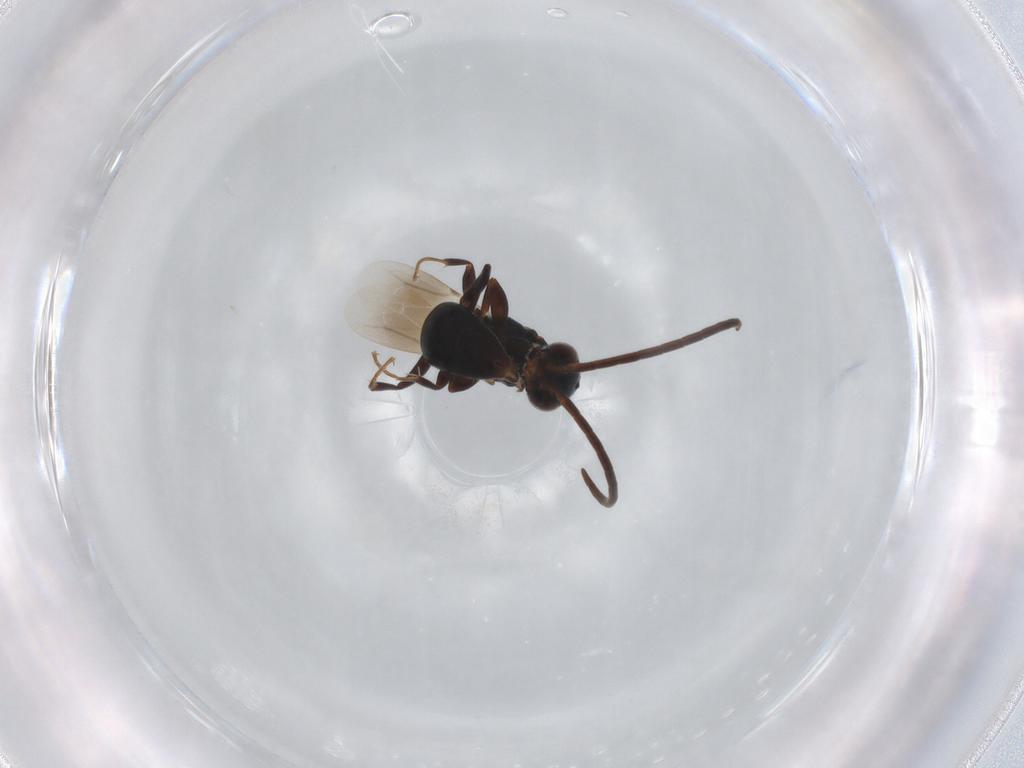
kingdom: Animalia
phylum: Arthropoda
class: Insecta
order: Hymenoptera
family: Bethylidae
